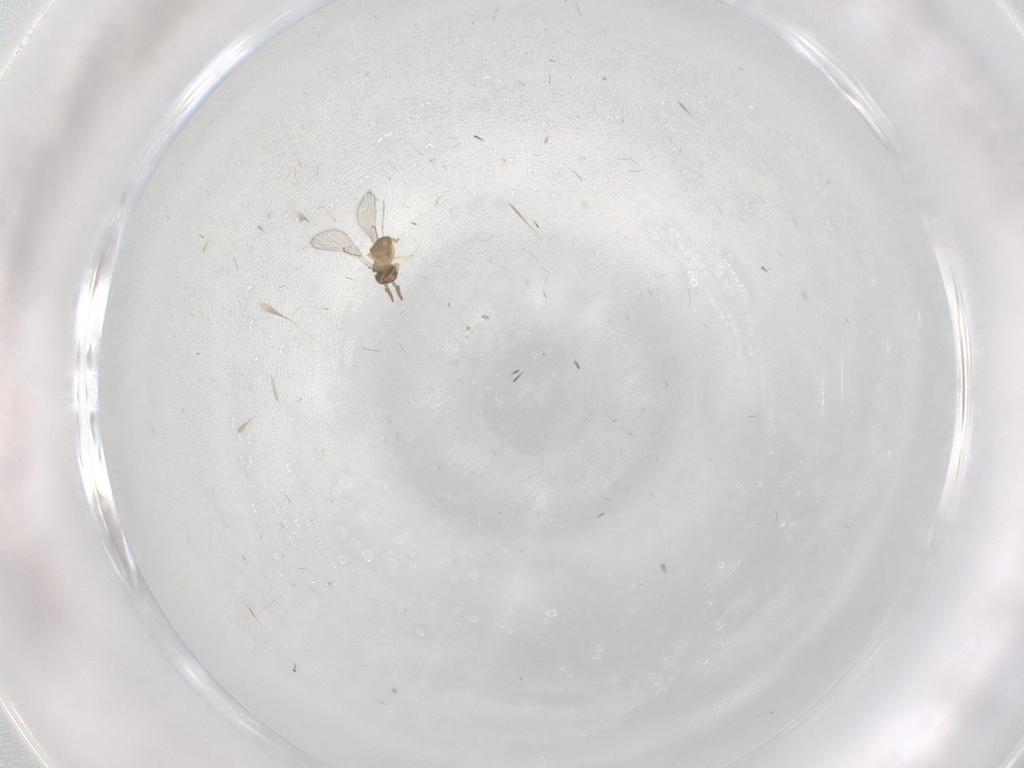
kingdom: Animalia
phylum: Arthropoda
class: Insecta
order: Hymenoptera
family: Trichogrammatidae
